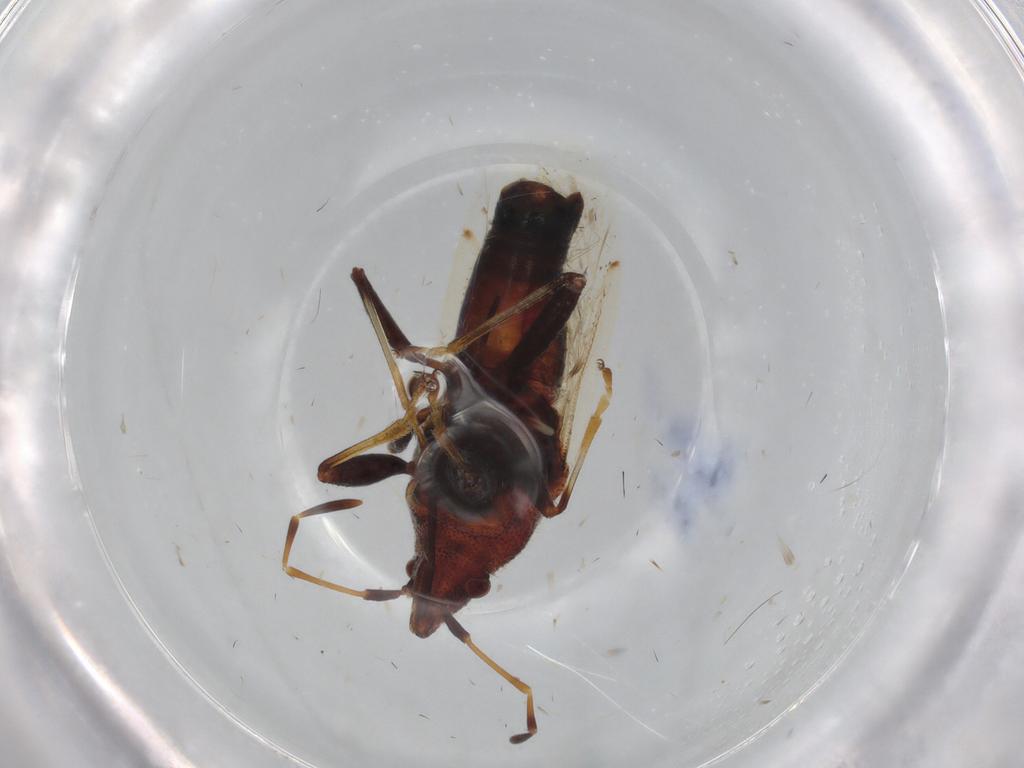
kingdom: Animalia
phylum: Arthropoda
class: Insecta
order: Hemiptera
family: Oxycarenidae
